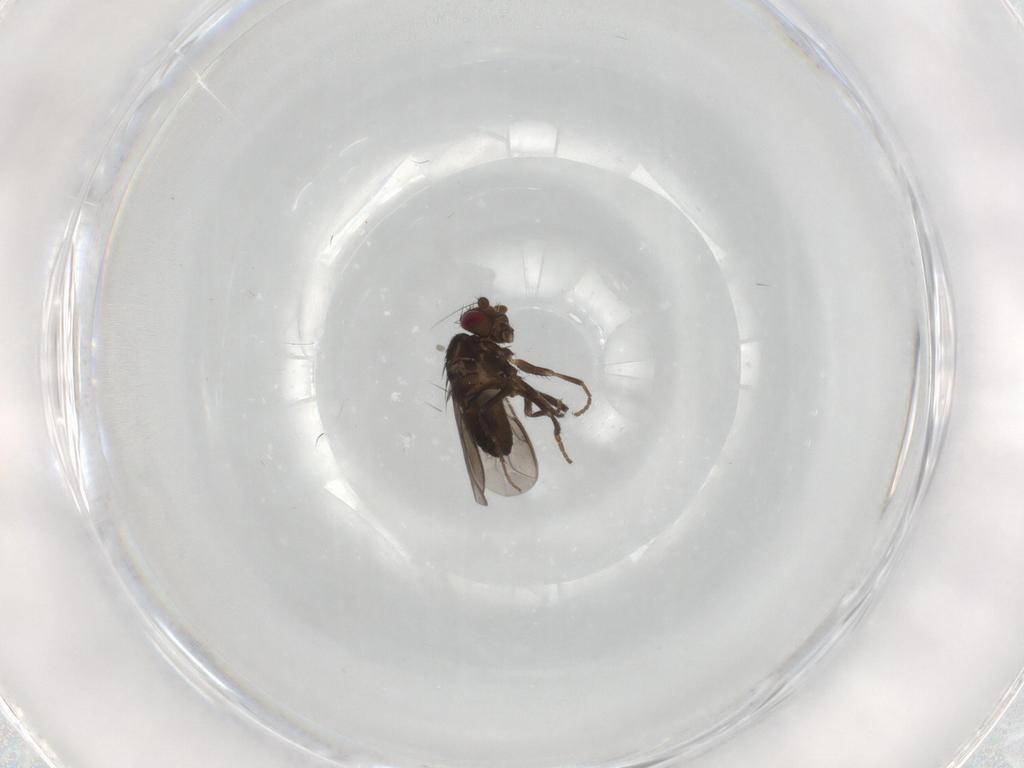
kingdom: Animalia
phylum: Arthropoda
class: Insecta
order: Diptera
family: Sphaeroceridae
